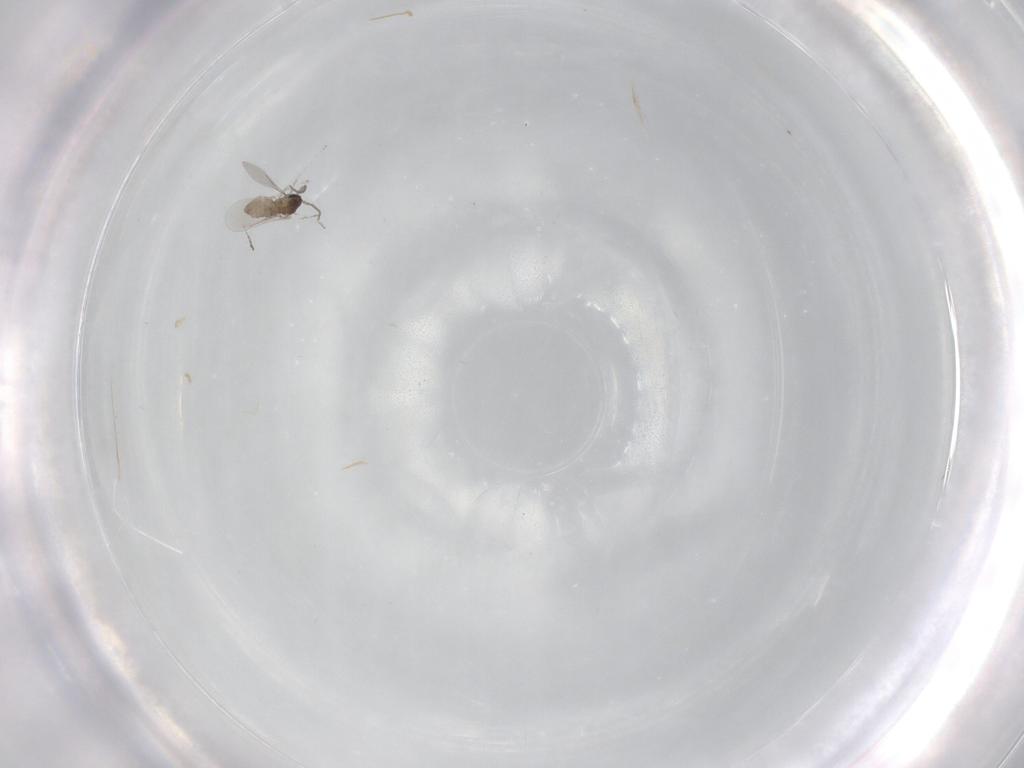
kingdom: Animalia
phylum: Arthropoda
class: Insecta
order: Diptera
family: Cecidomyiidae
